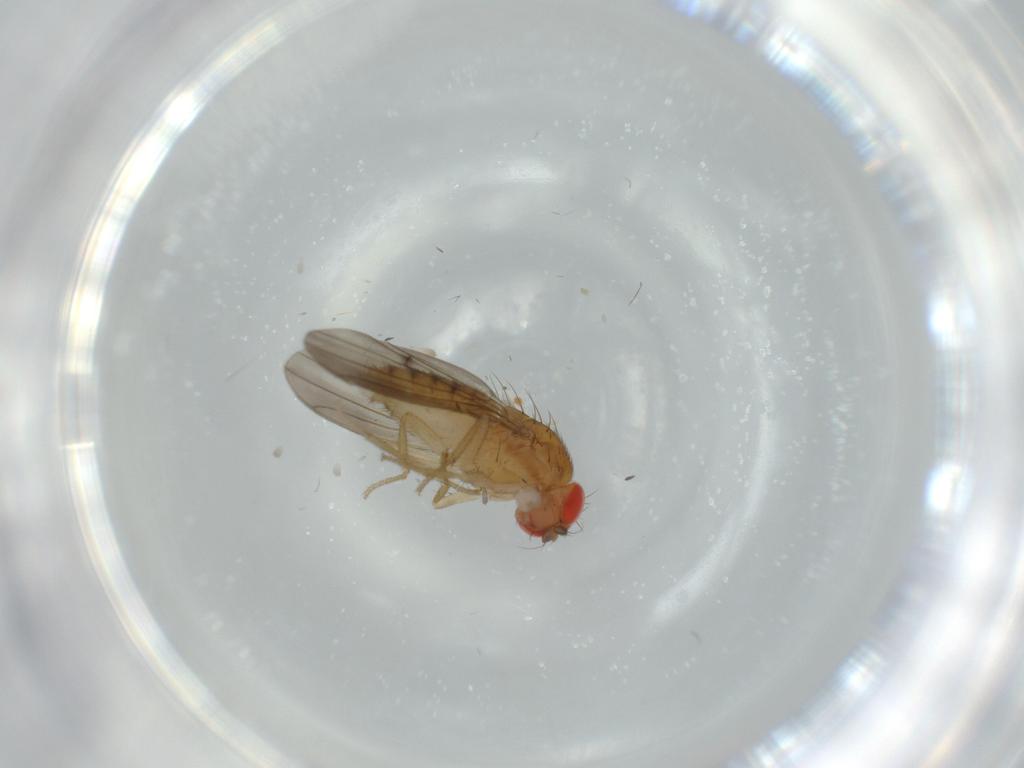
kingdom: Animalia
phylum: Arthropoda
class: Insecta
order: Diptera
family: Drosophilidae
